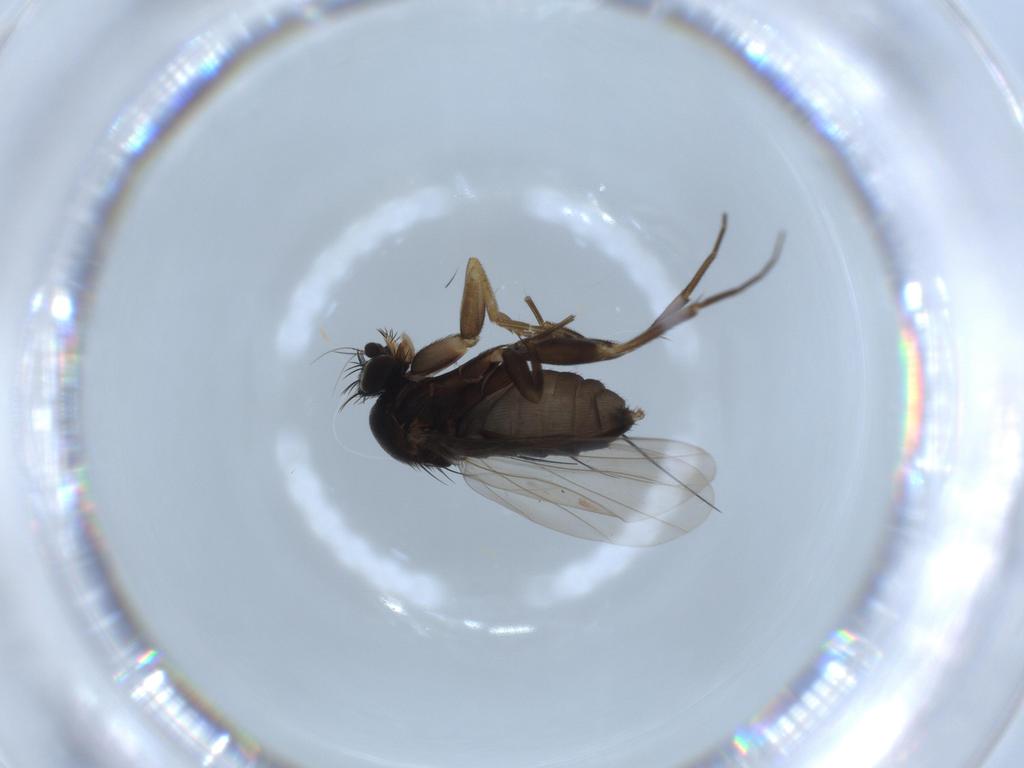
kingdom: Animalia
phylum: Arthropoda
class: Insecta
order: Diptera
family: Phoridae
